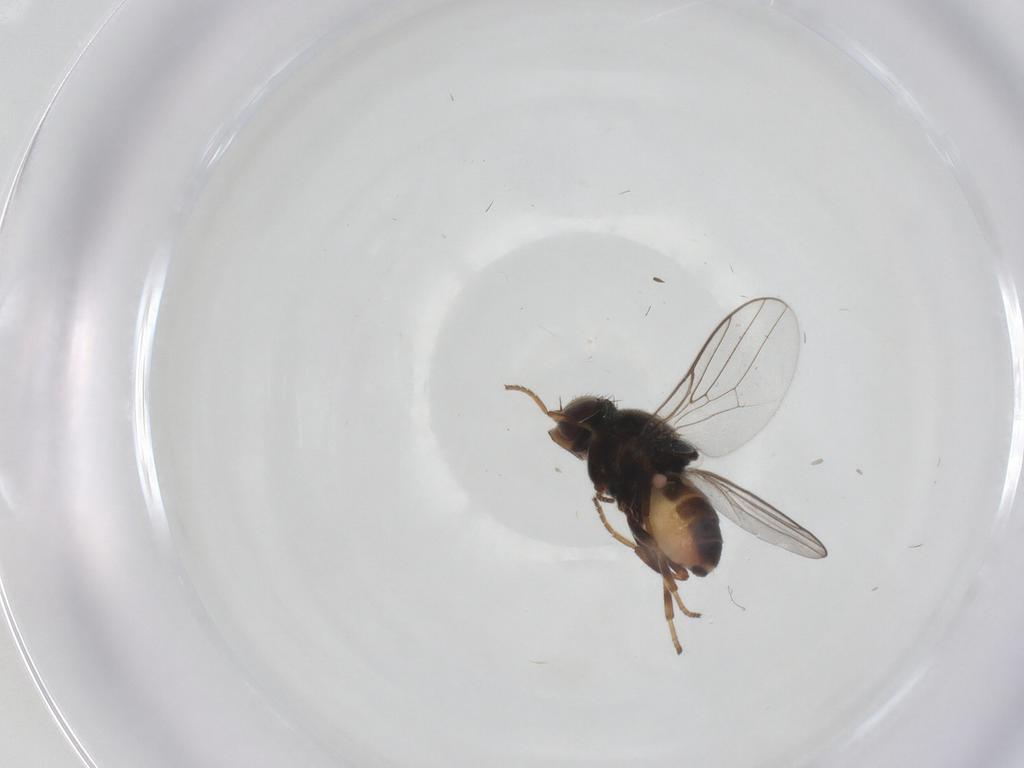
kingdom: Animalia
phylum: Arthropoda
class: Insecta
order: Diptera
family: Chloropidae
